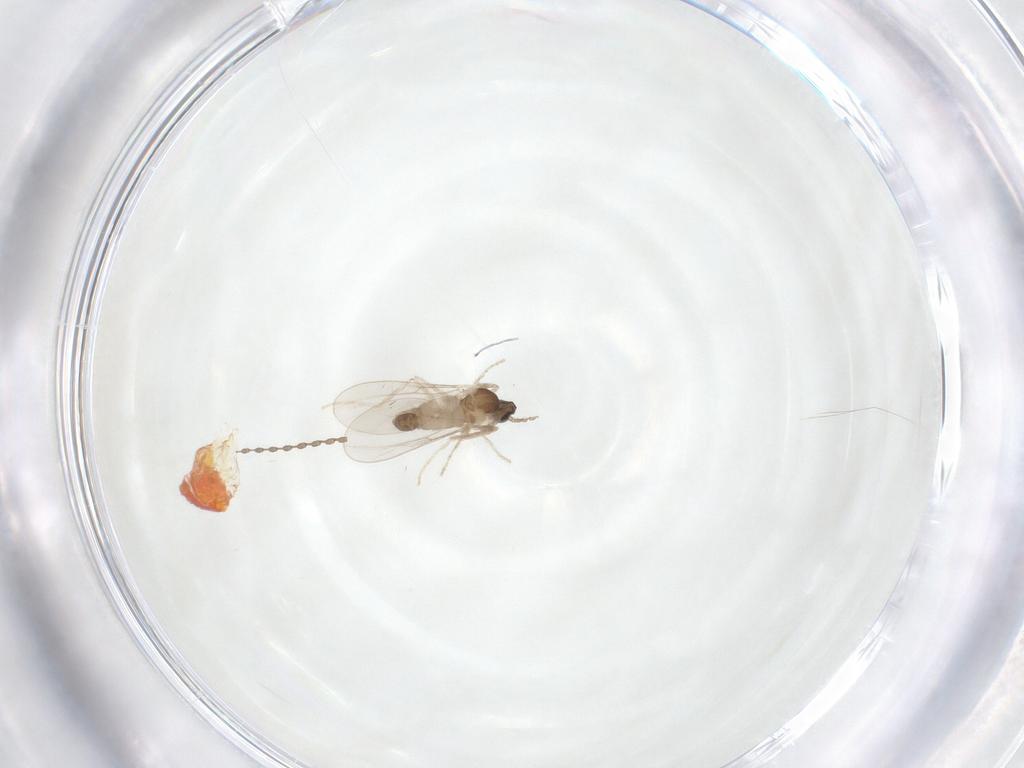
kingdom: Animalia
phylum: Arthropoda
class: Insecta
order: Diptera
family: Cecidomyiidae
